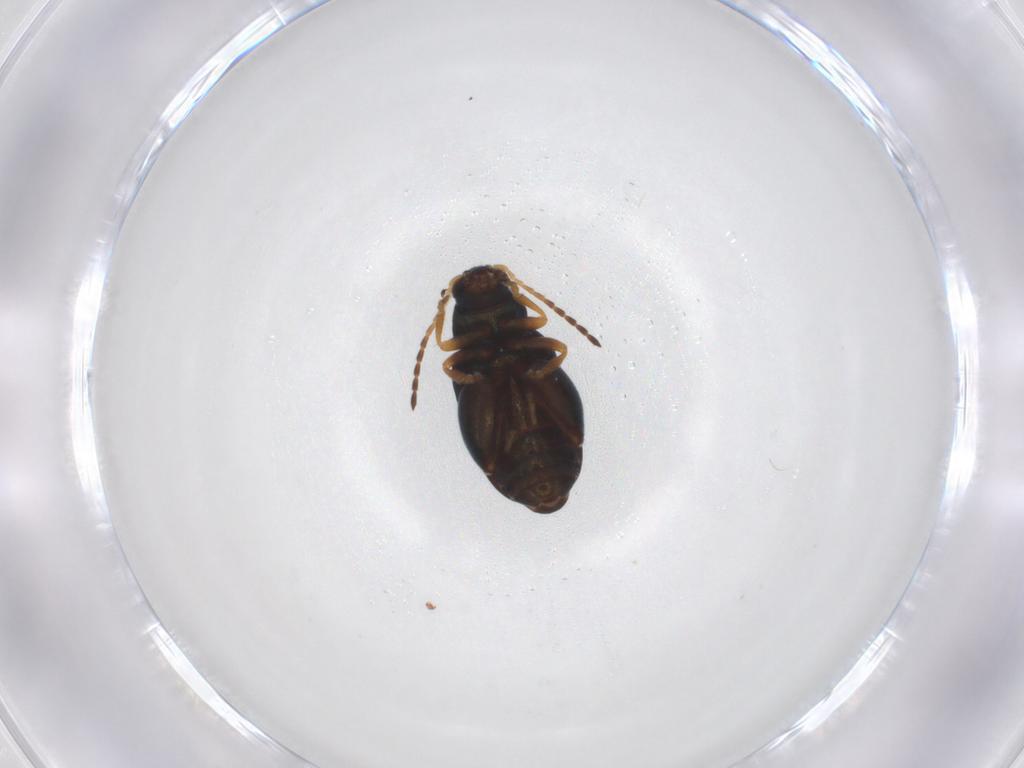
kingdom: Animalia
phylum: Arthropoda
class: Insecta
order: Coleoptera
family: Chrysomelidae
